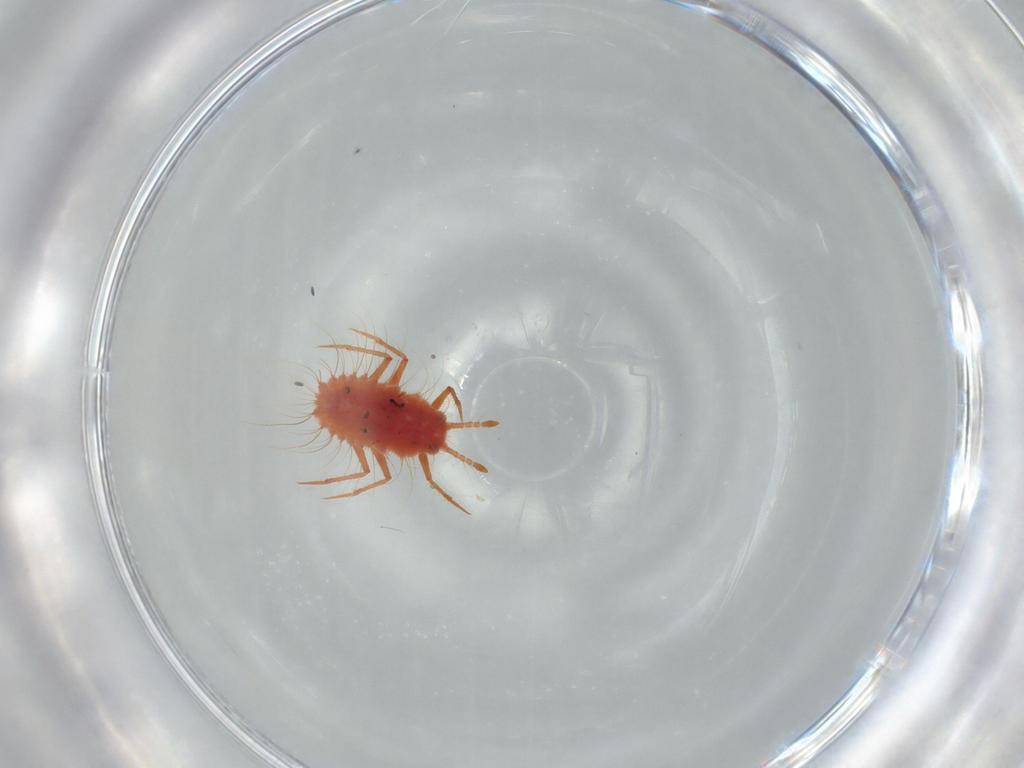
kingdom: Animalia
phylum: Arthropoda
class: Insecta
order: Hemiptera
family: Monophlebidae
